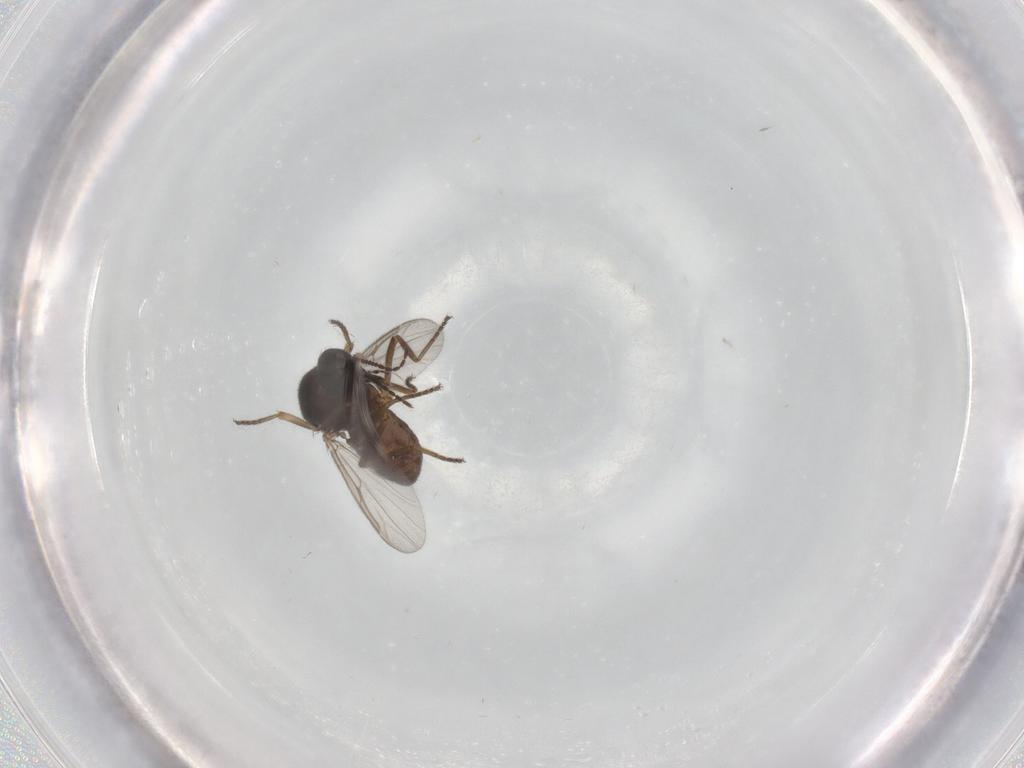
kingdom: Animalia
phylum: Arthropoda
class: Insecta
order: Diptera
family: Ceratopogonidae
